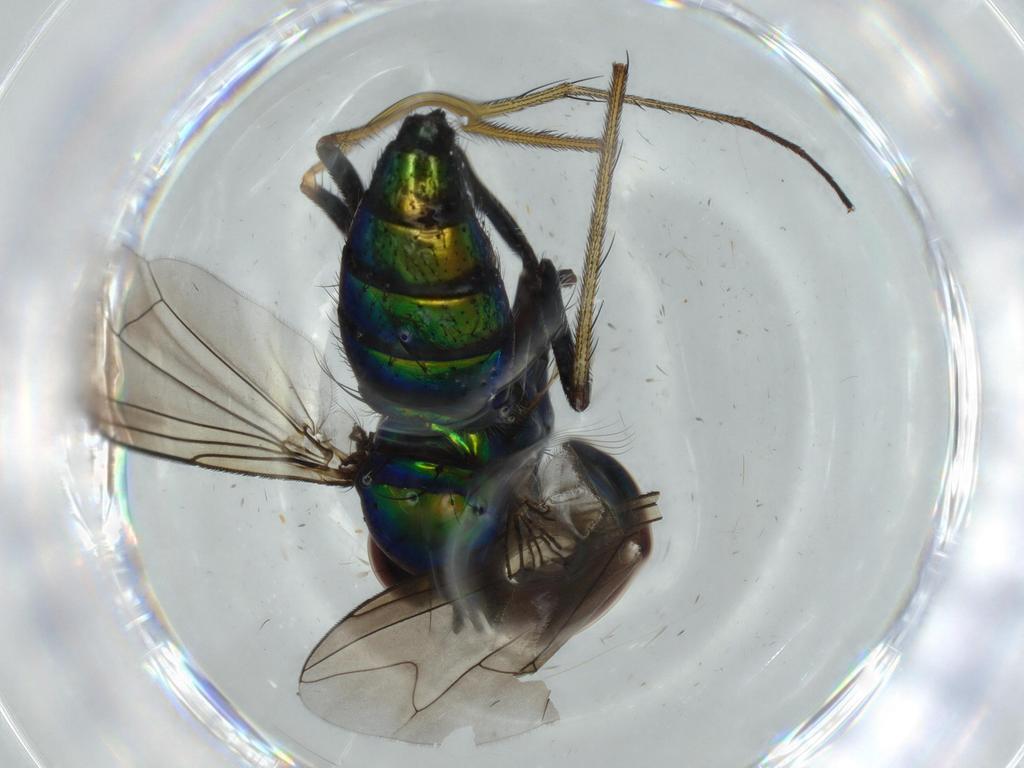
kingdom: Animalia
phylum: Arthropoda
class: Insecta
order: Diptera
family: Dolichopodidae
